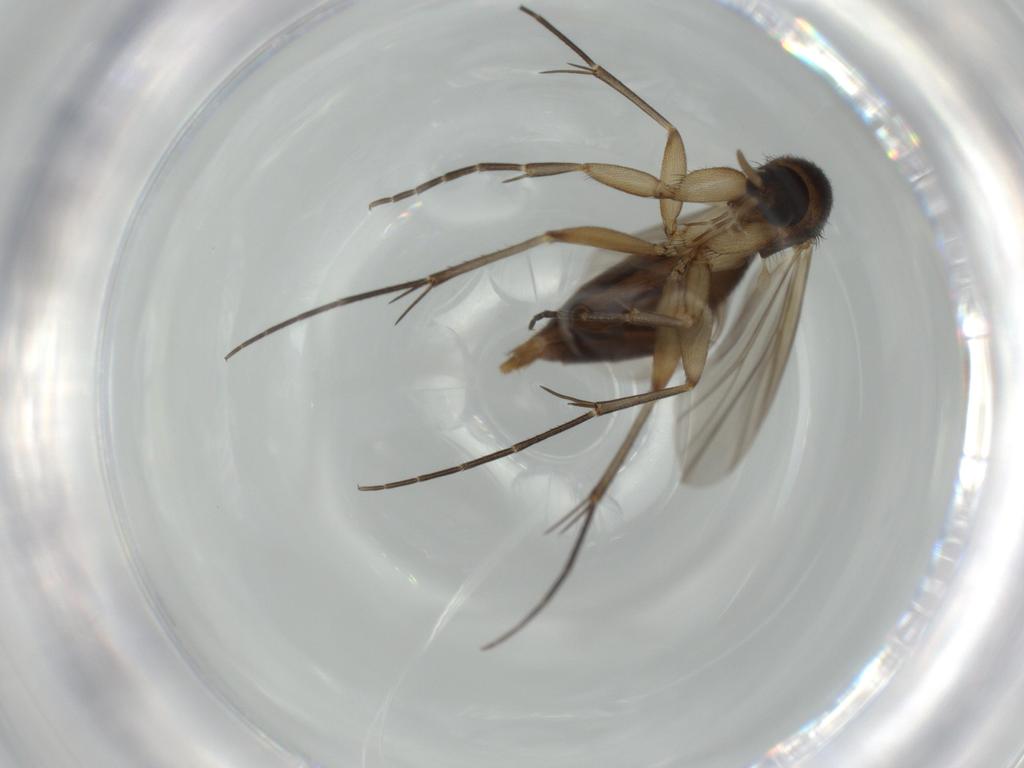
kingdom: Animalia
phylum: Arthropoda
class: Insecta
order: Diptera
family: Mycetophilidae
